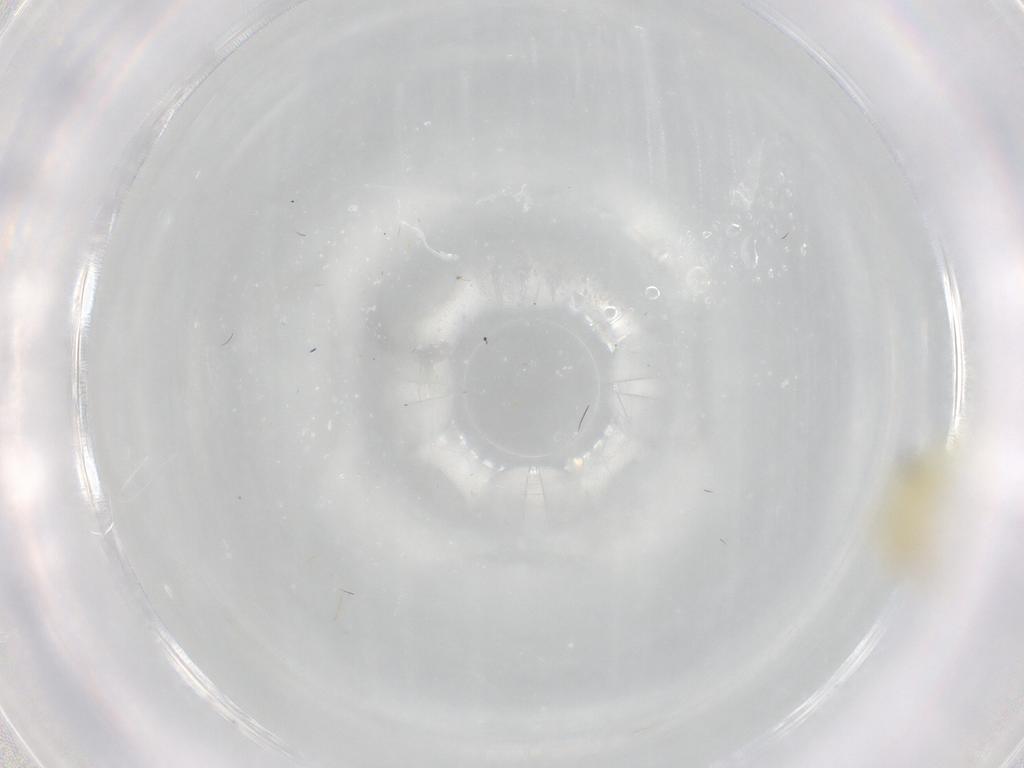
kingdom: Animalia
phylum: Arthropoda
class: Insecta
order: Hemiptera
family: Cicadellidae
